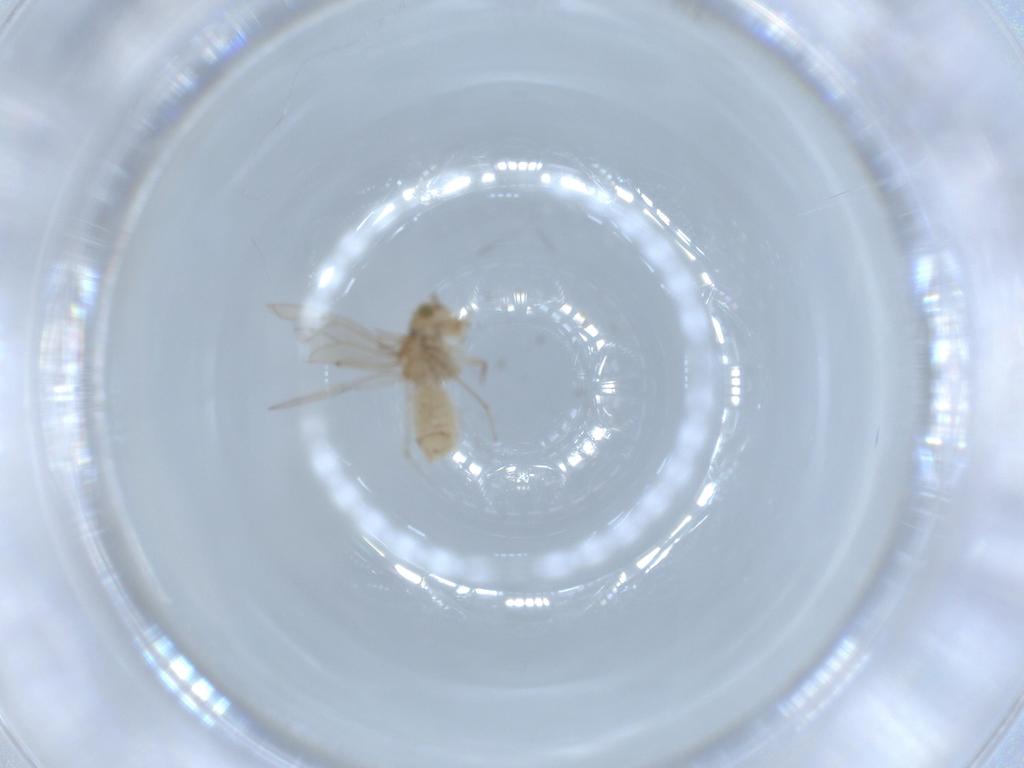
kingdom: Animalia
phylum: Arthropoda
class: Insecta
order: Psocodea
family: Lachesillidae
